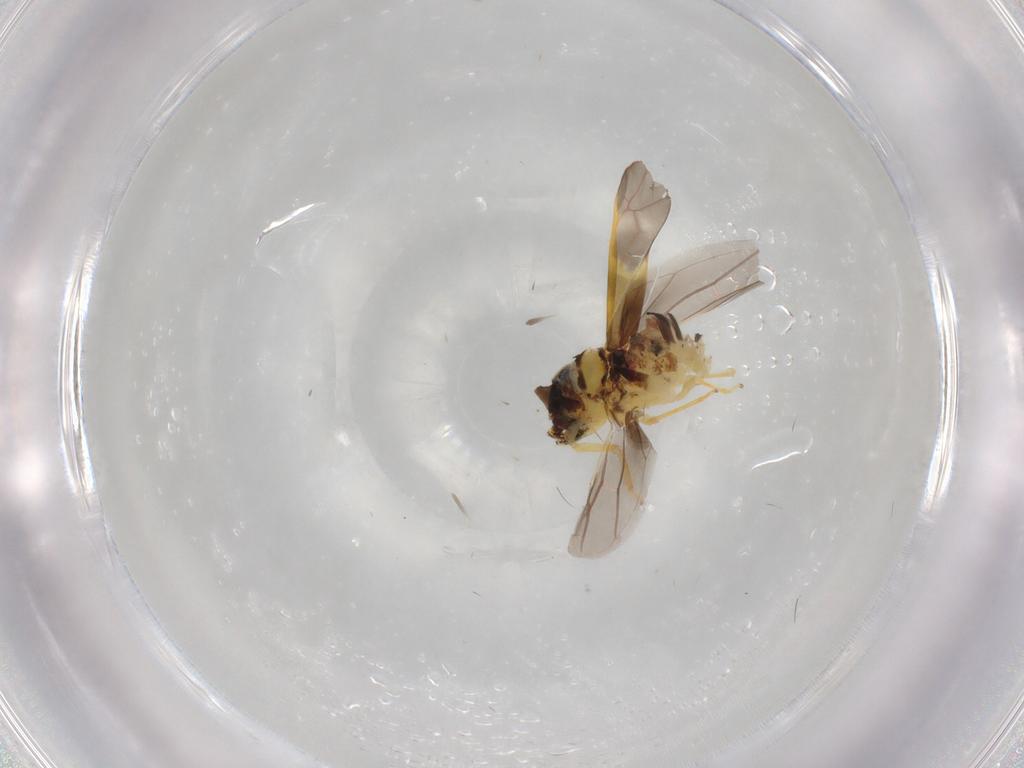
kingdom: Animalia
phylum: Arthropoda
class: Insecta
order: Hemiptera
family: Cicadellidae
